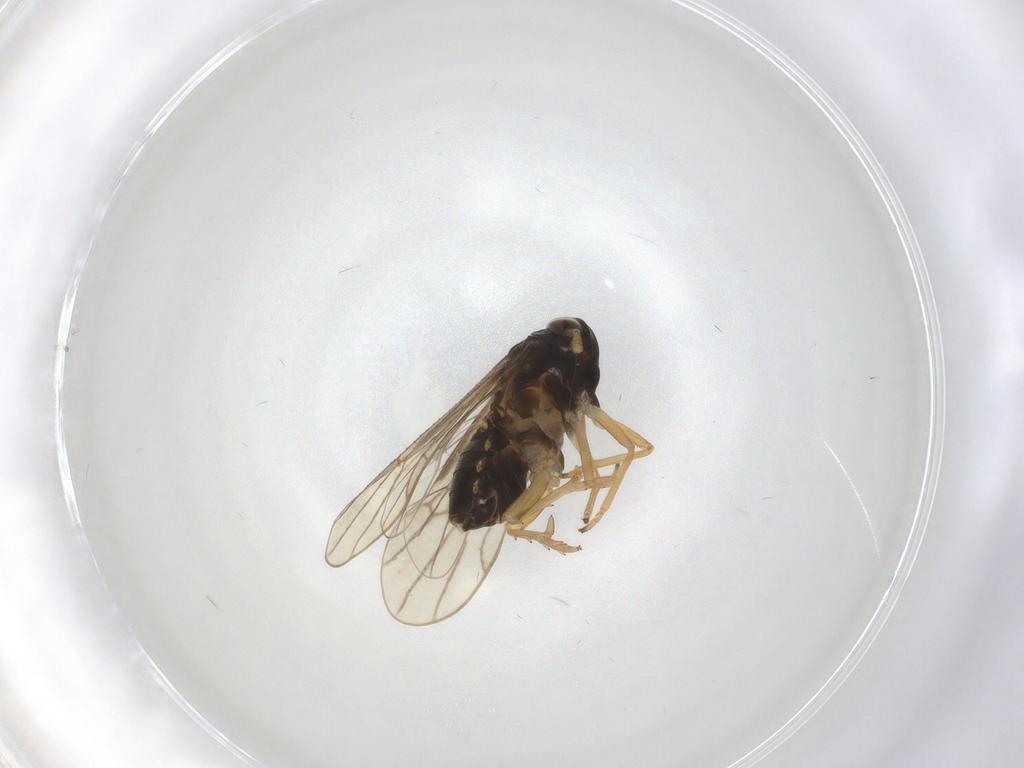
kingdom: Animalia
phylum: Arthropoda
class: Insecta
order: Hemiptera
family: Delphacidae
